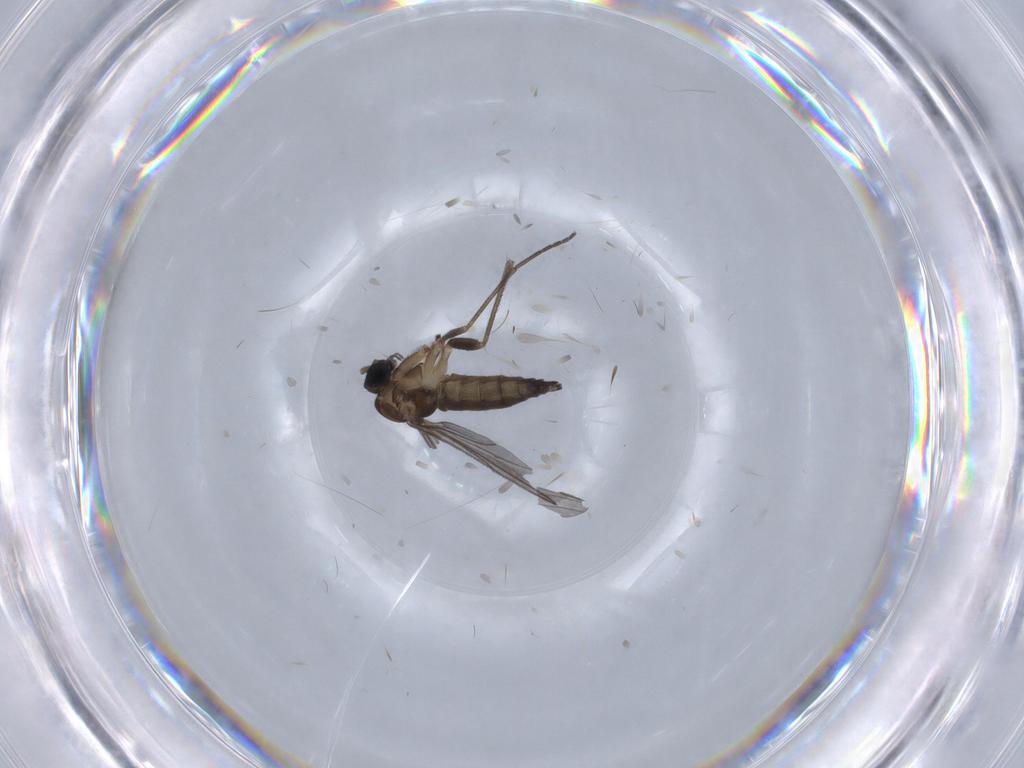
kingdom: Animalia
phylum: Arthropoda
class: Insecta
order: Diptera
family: Sciaridae
